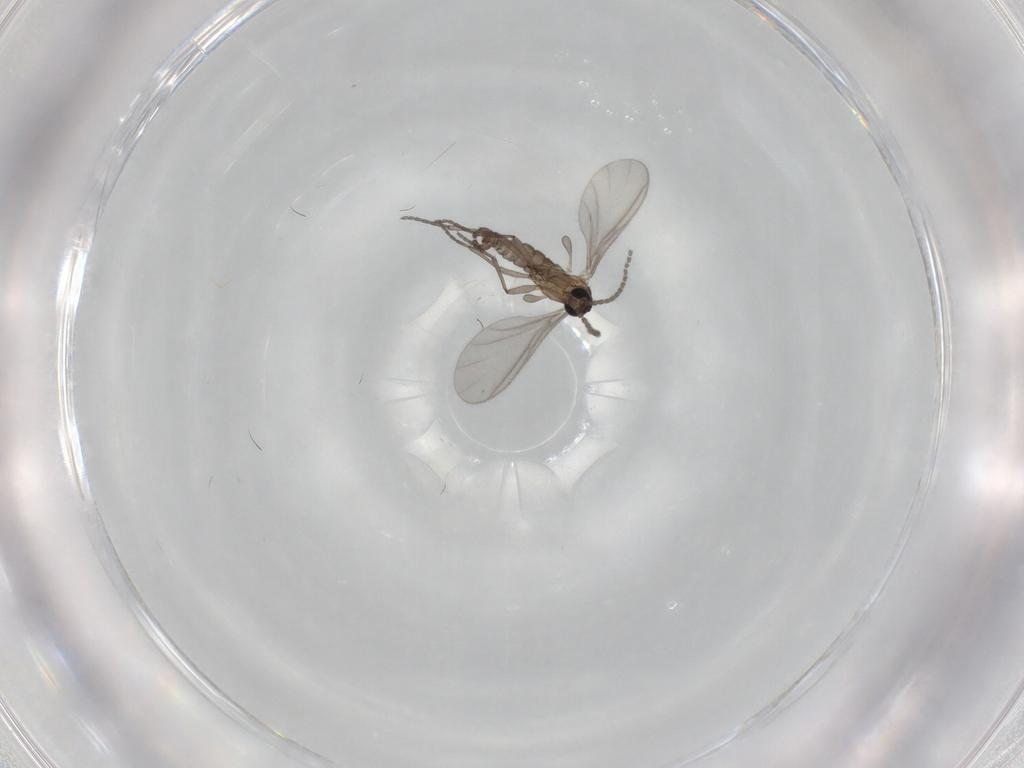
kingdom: Animalia
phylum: Arthropoda
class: Insecta
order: Diptera
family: Sciaridae
